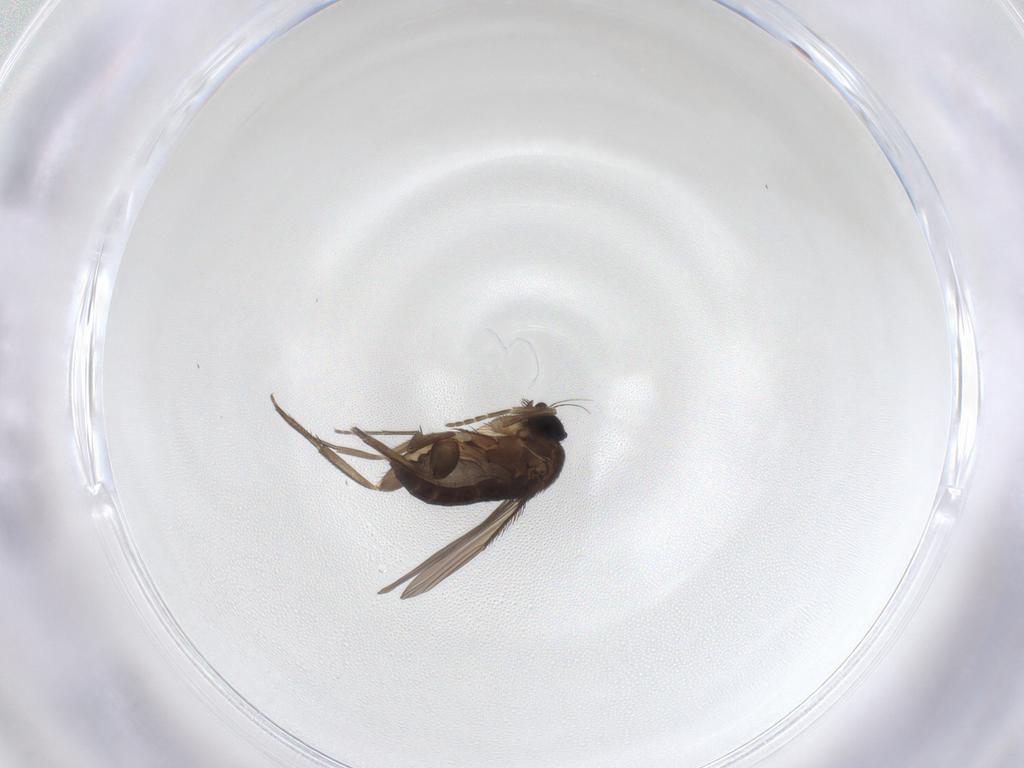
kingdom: Animalia
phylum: Arthropoda
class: Insecta
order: Diptera
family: Phoridae
